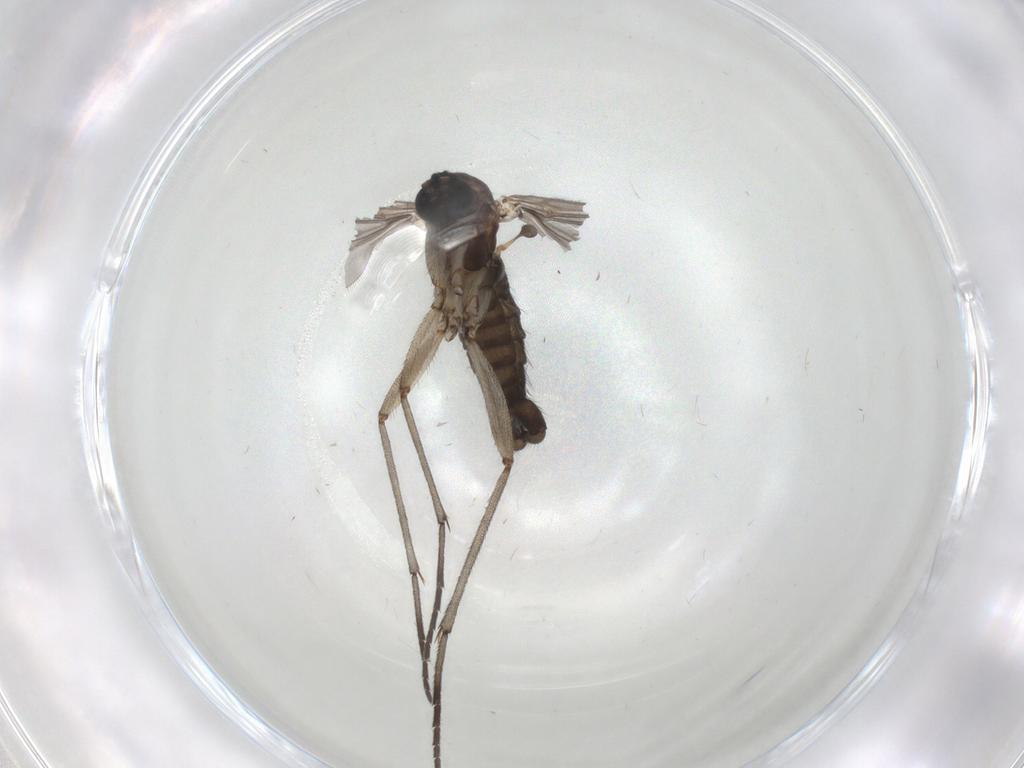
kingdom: Animalia
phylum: Arthropoda
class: Insecta
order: Diptera
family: Sciaridae
